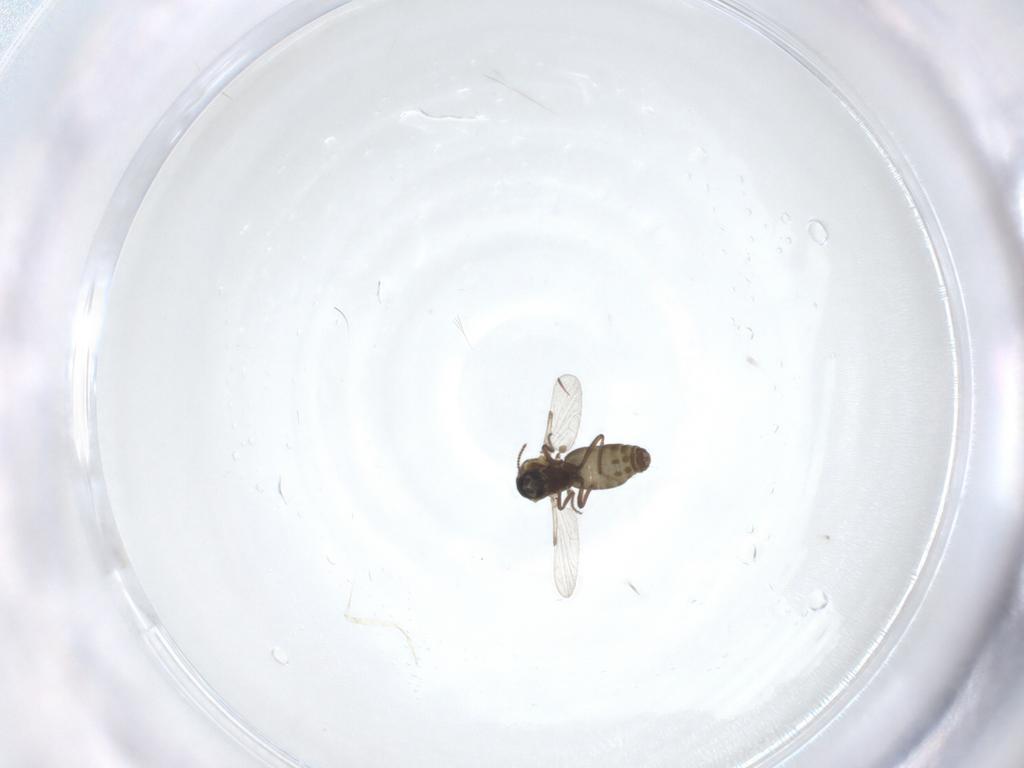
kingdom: Animalia
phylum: Arthropoda
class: Insecta
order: Diptera
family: Ceratopogonidae
